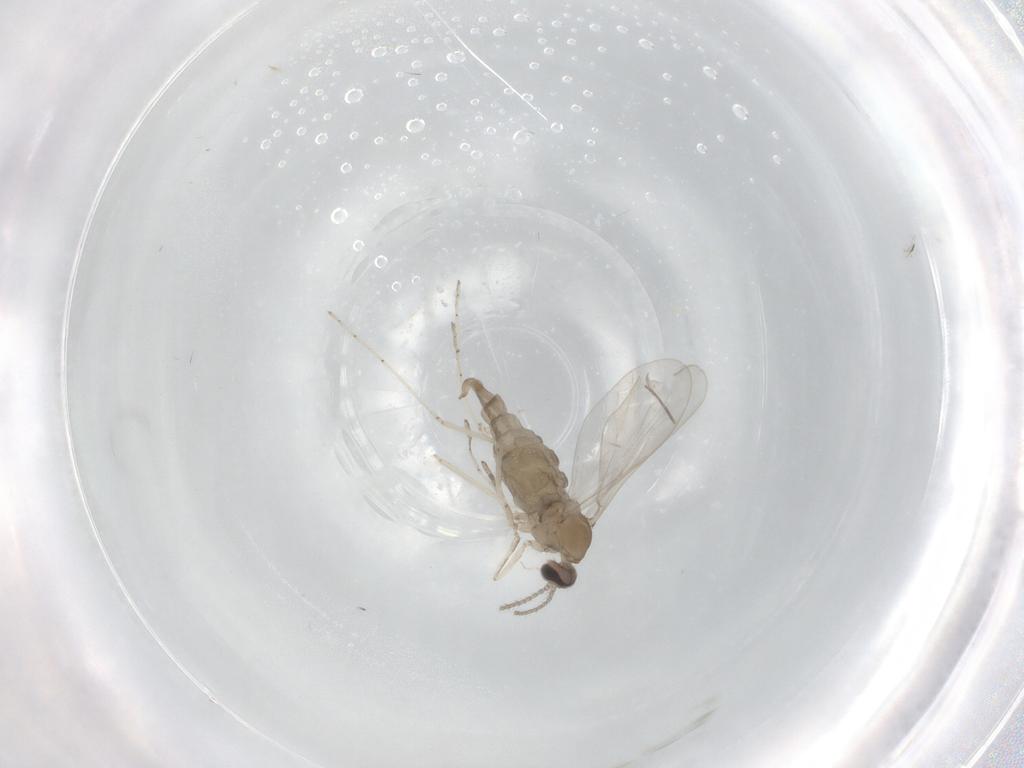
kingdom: Animalia
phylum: Arthropoda
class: Insecta
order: Diptera
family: Cecidomyiidae
